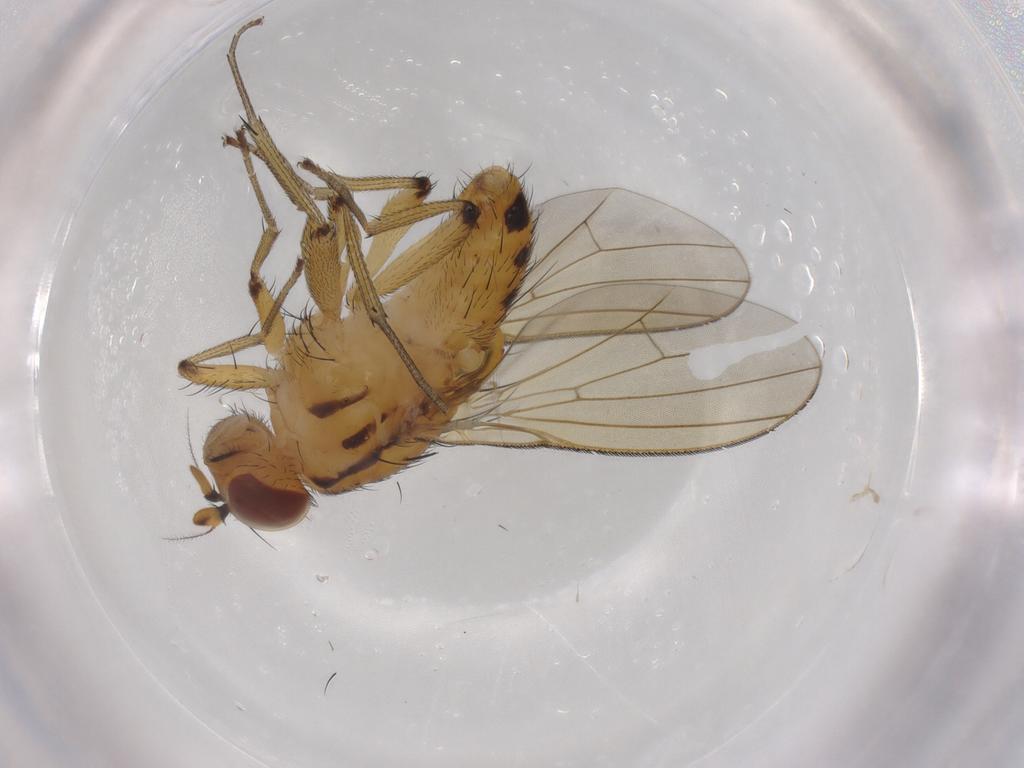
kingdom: Animalia
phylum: Arthropoda
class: Insecta
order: Diptera
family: Chironomidae
